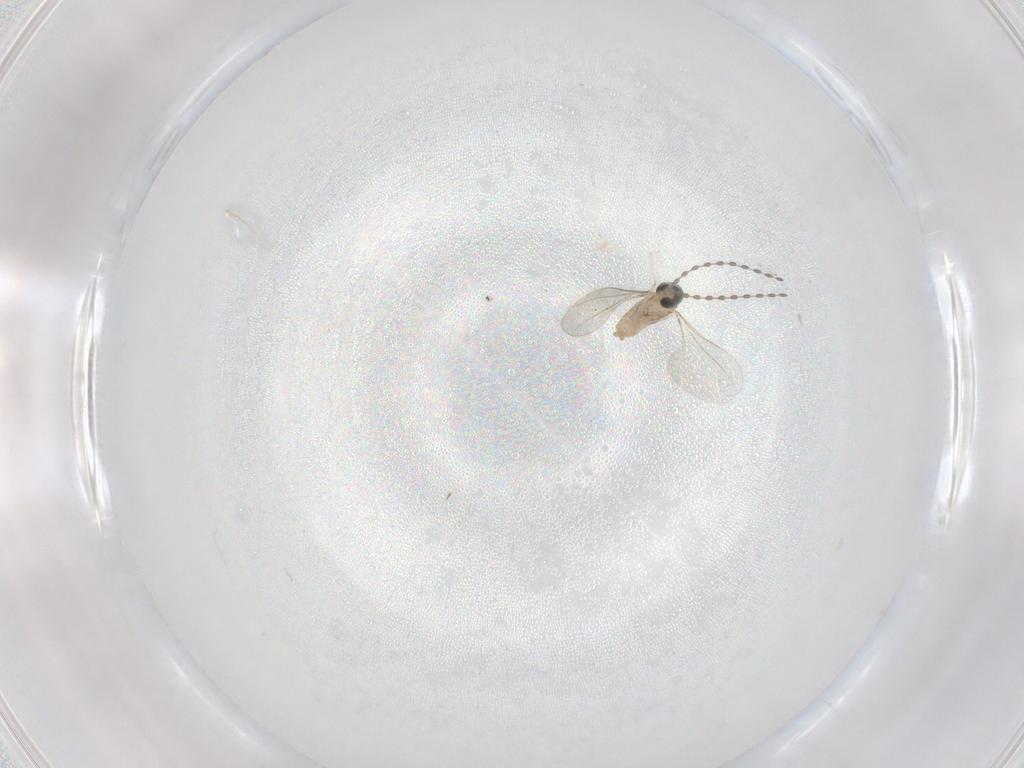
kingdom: Animalia
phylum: Arthropoda
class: Insecta
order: Diptera
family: Cecidomyiidae
